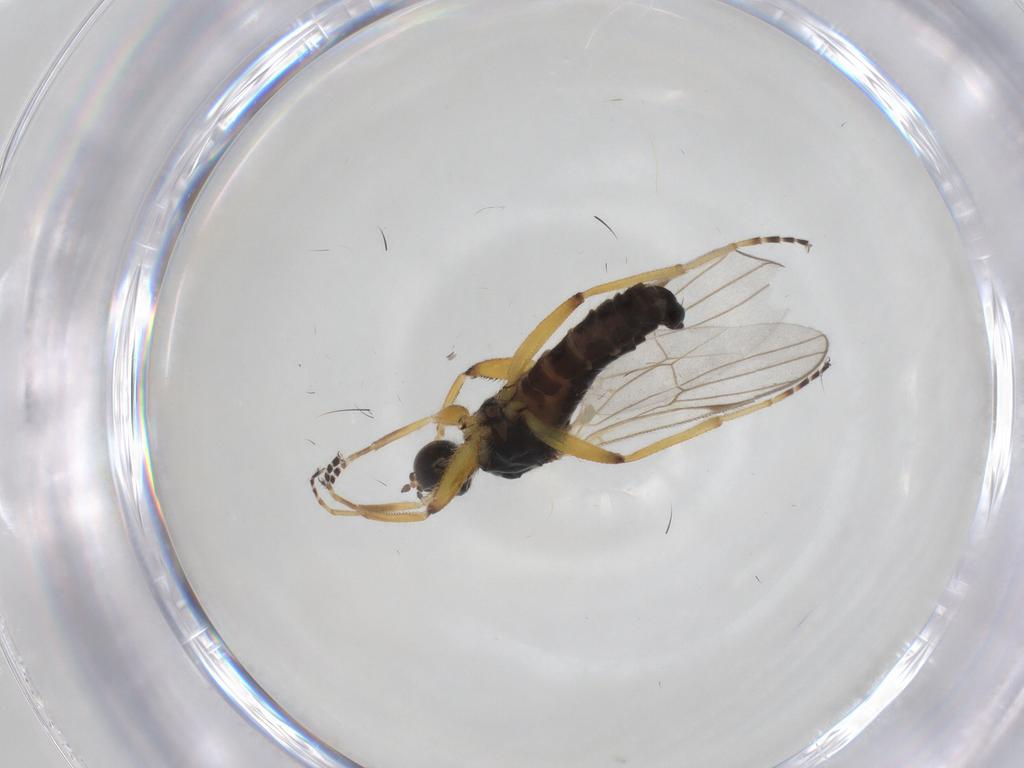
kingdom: Animalia
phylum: Arthropoda
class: Insecta
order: Diptera
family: Hybotidae
